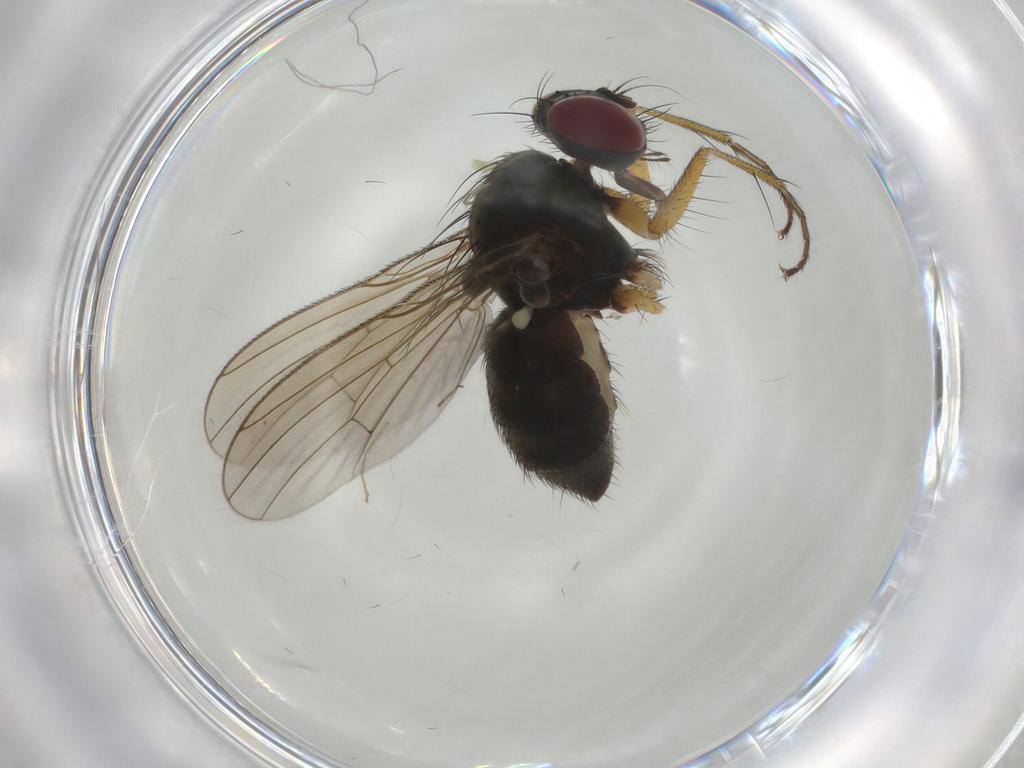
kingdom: Animalia
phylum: Arthropoda
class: Insecta
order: Diptera
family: Muscidae
